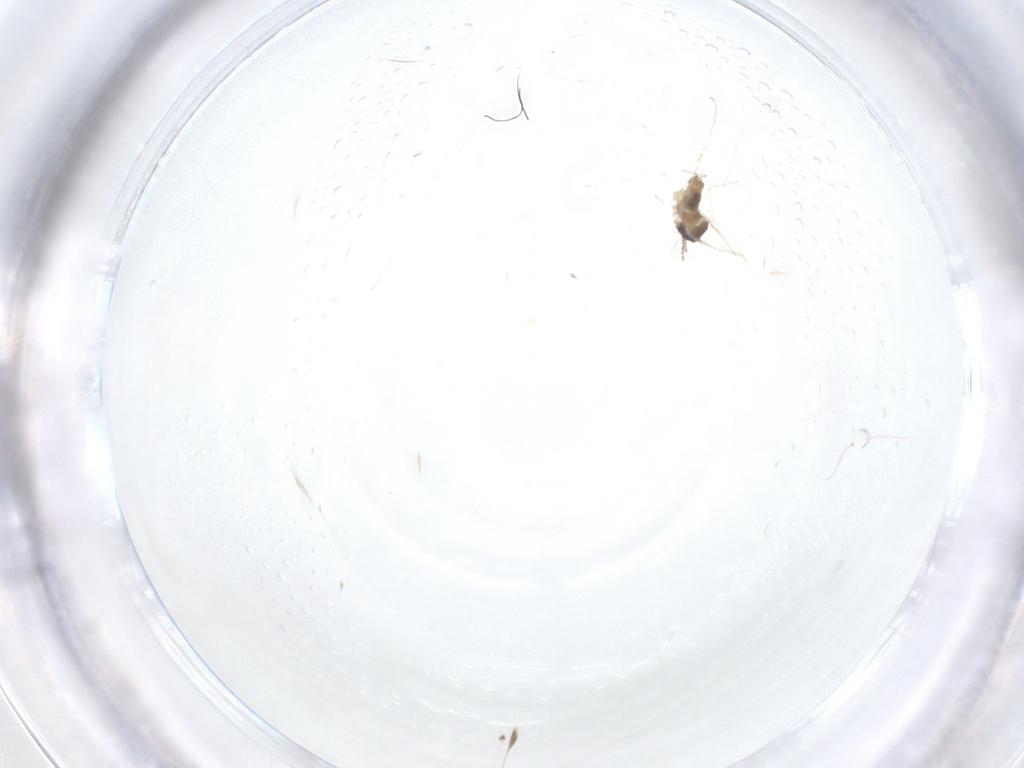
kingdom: Animalia
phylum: Arthropoda
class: Insecta
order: Diptera
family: Cecidomyiidae
